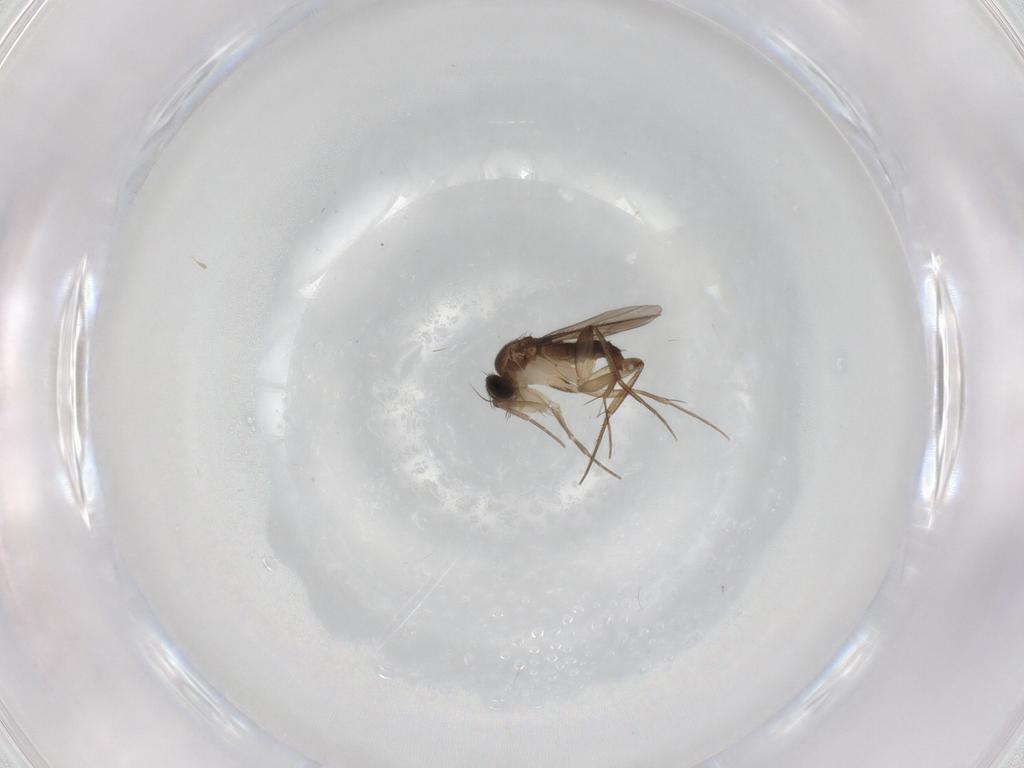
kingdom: Animalia
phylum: Arthropoda
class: Insecta
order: Diptera
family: Phoridae
